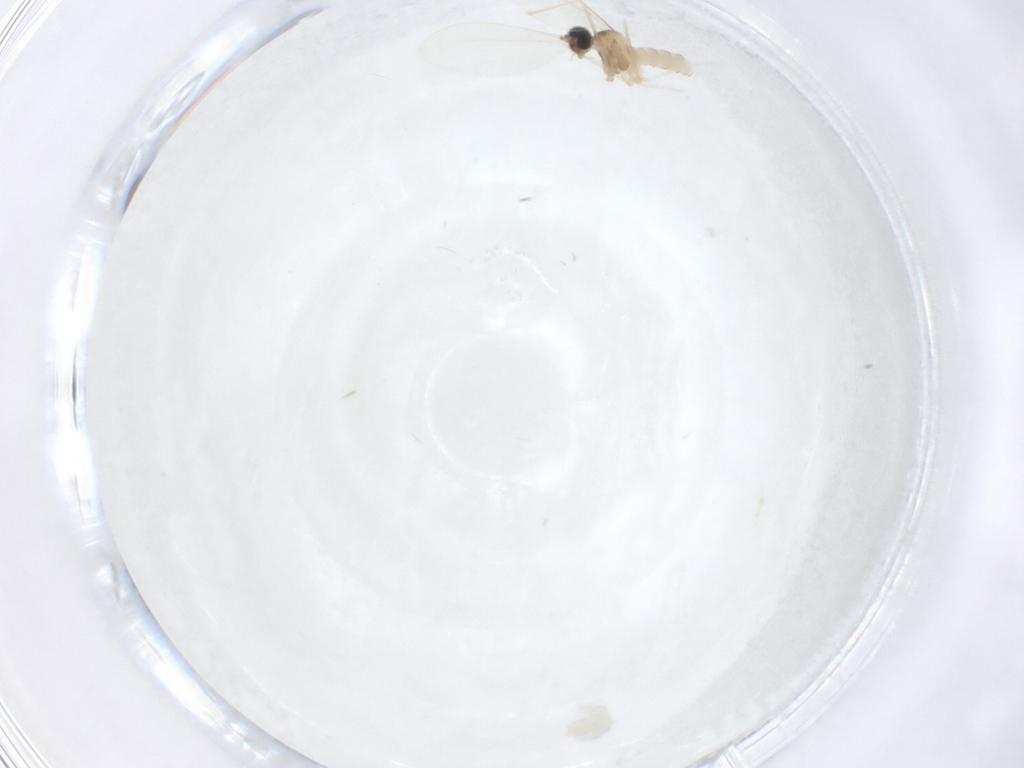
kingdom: Animalia
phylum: Arthropoda
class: Insecta
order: Diptera
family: Cecidomyiidae
